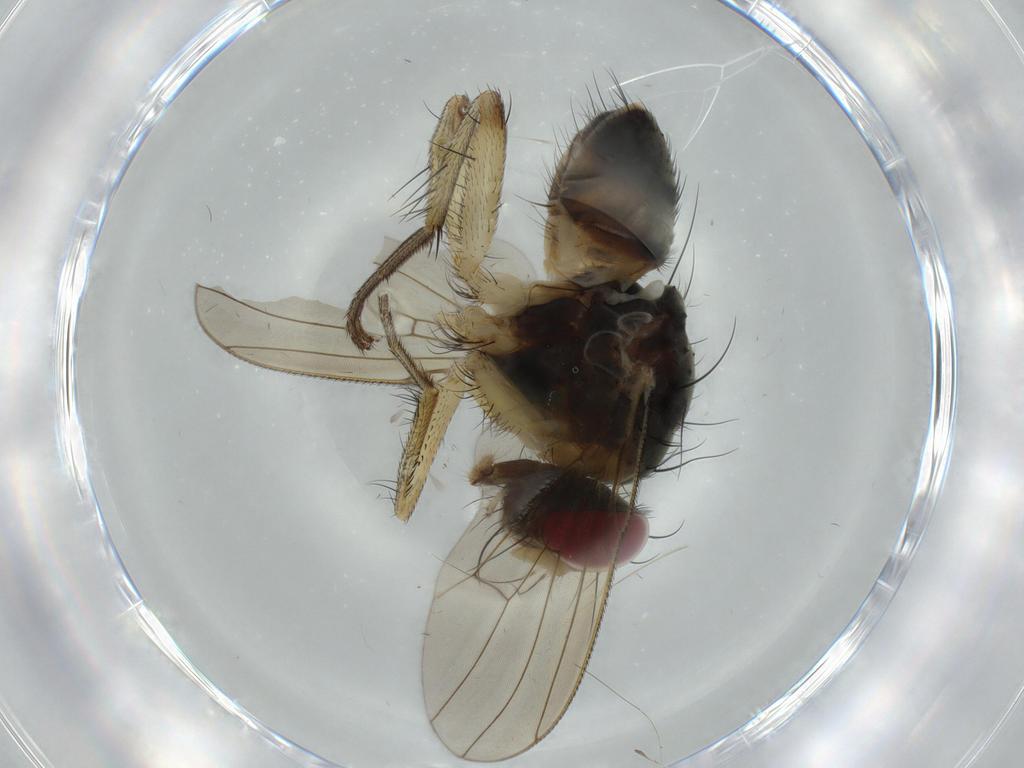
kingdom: Animalia
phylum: Arthropoda
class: Insecta
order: Diptera
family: Muscidae
